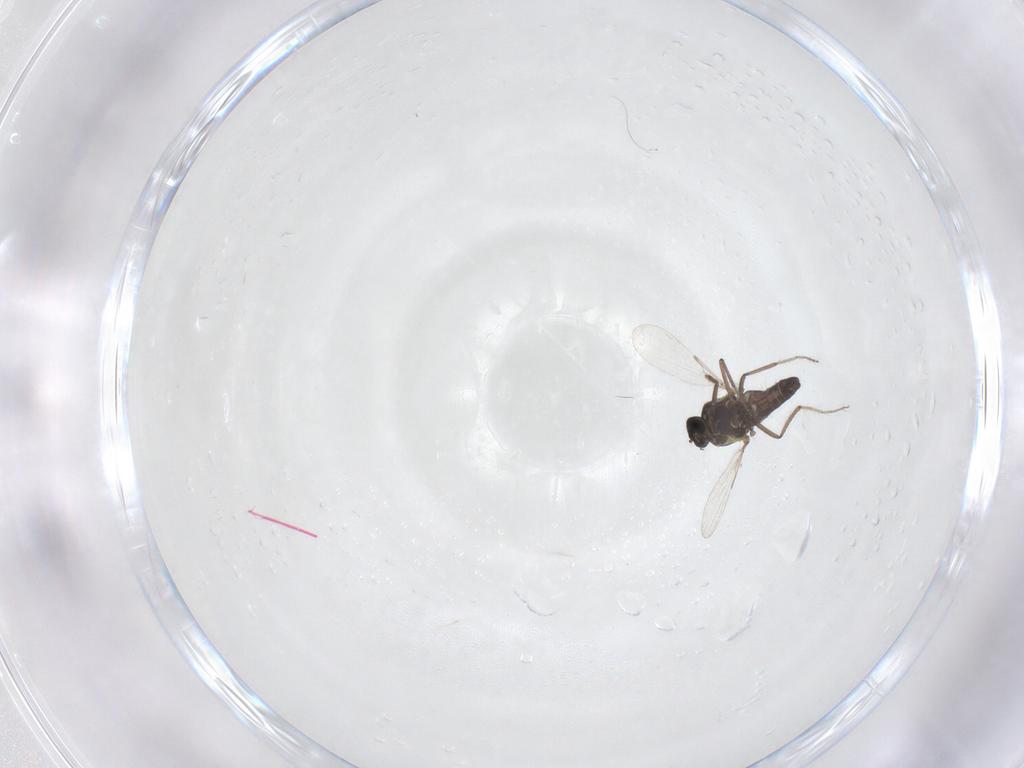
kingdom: Animalia
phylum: Arthropoda
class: Insecta
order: Diptera
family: Ceratopogonidae
